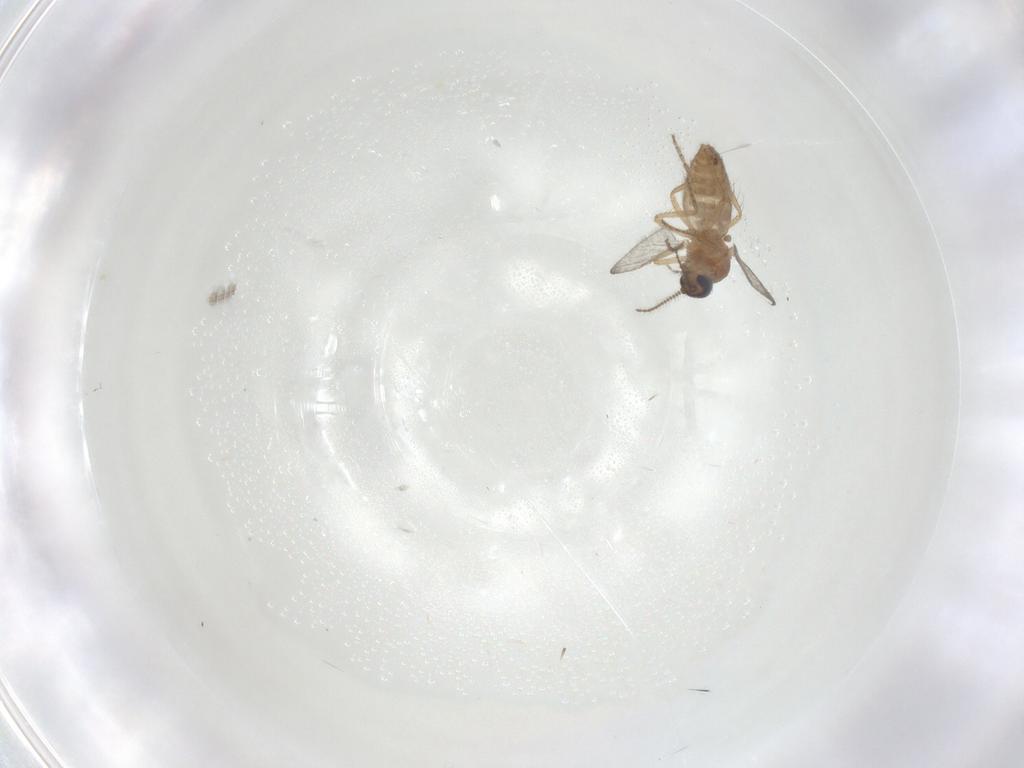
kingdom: Animalia
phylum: Arthropoda
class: Insecta
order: Diptera
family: Ceratopogonidae
